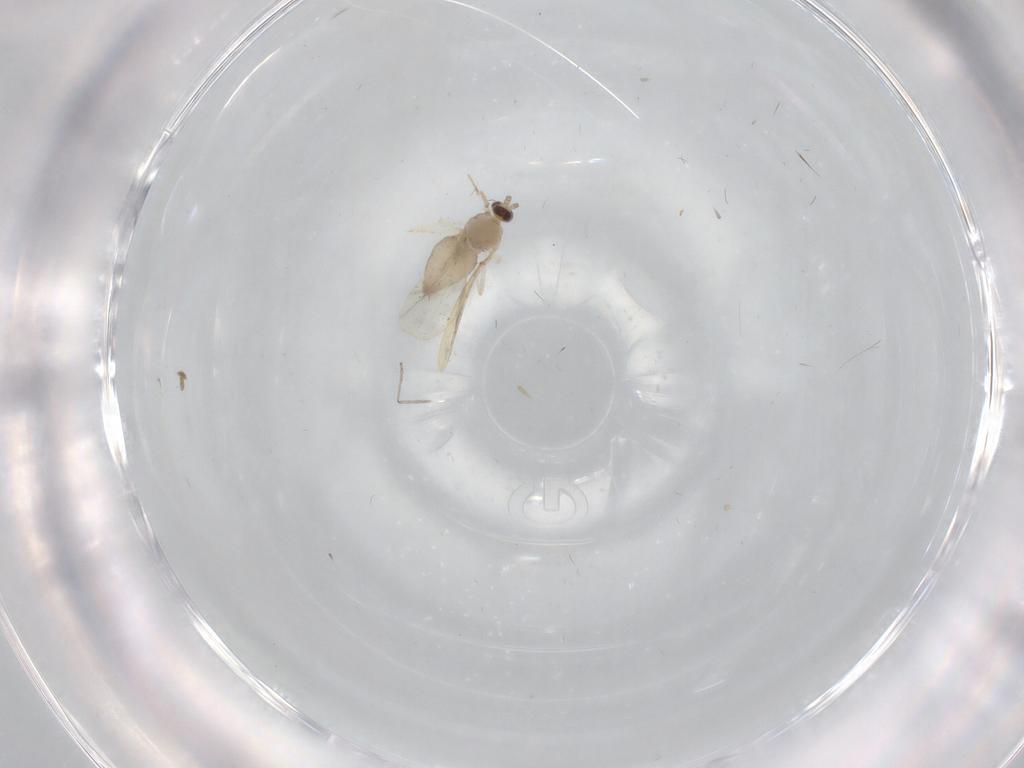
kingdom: Animalia
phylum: Arthropoda
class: Insecta
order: Diptera
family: Cecidomyiidae
